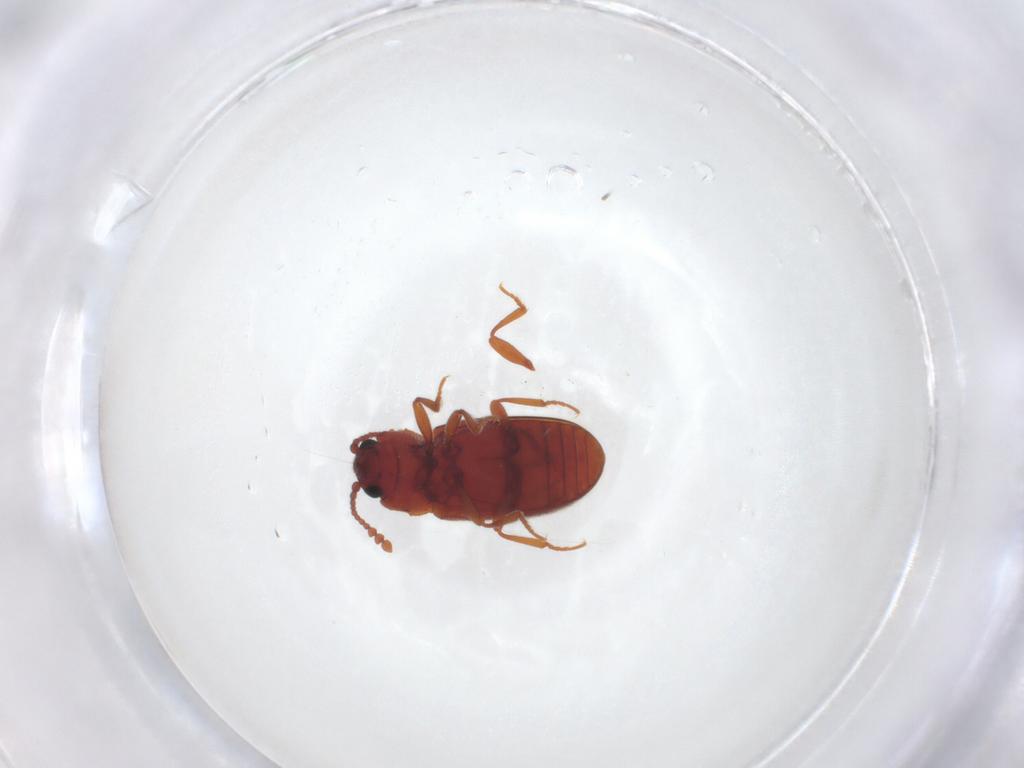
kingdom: Animalia
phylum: Arthropoda
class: Insecta
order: Coleoptera
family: Cryptophagidae
